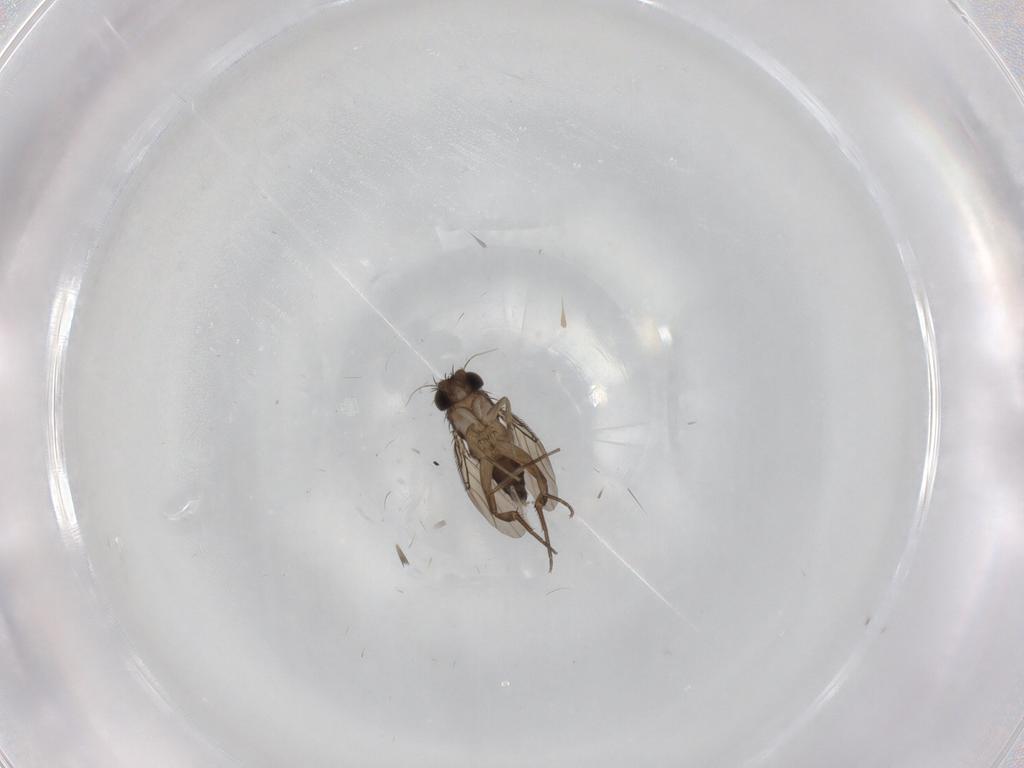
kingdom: Animalia
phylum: Arthropoda
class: Insecta
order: Diptera
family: Phoridae
